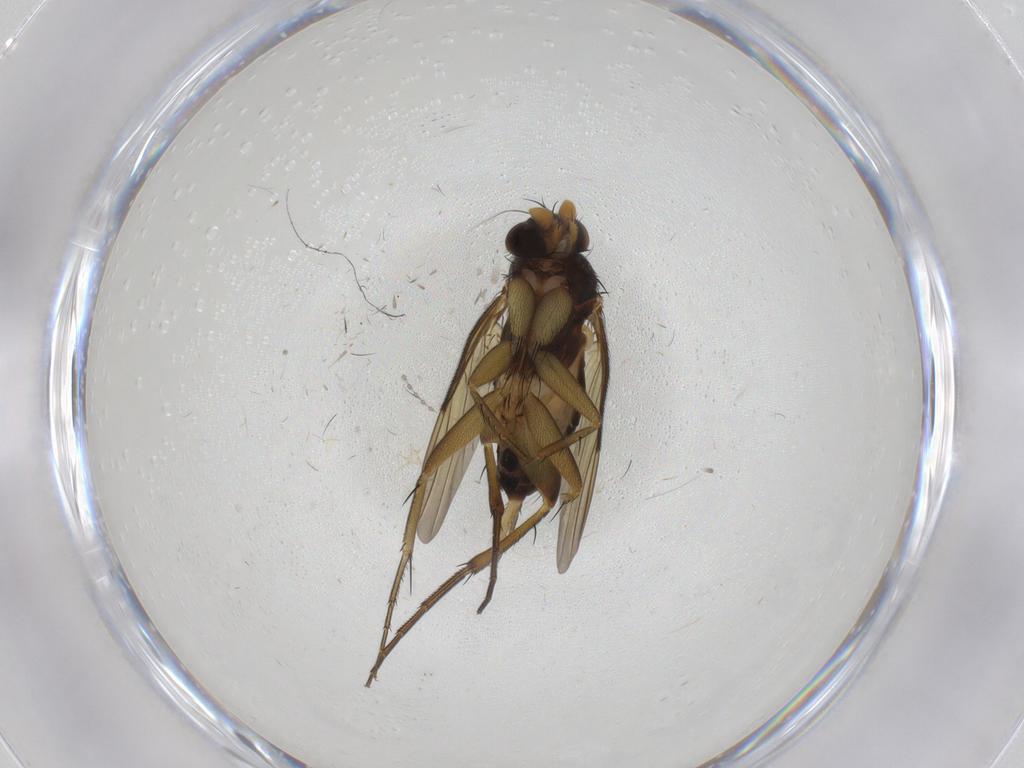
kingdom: Animalia
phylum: Arthropoda
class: Insecta
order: Diptera
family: Phoridae
